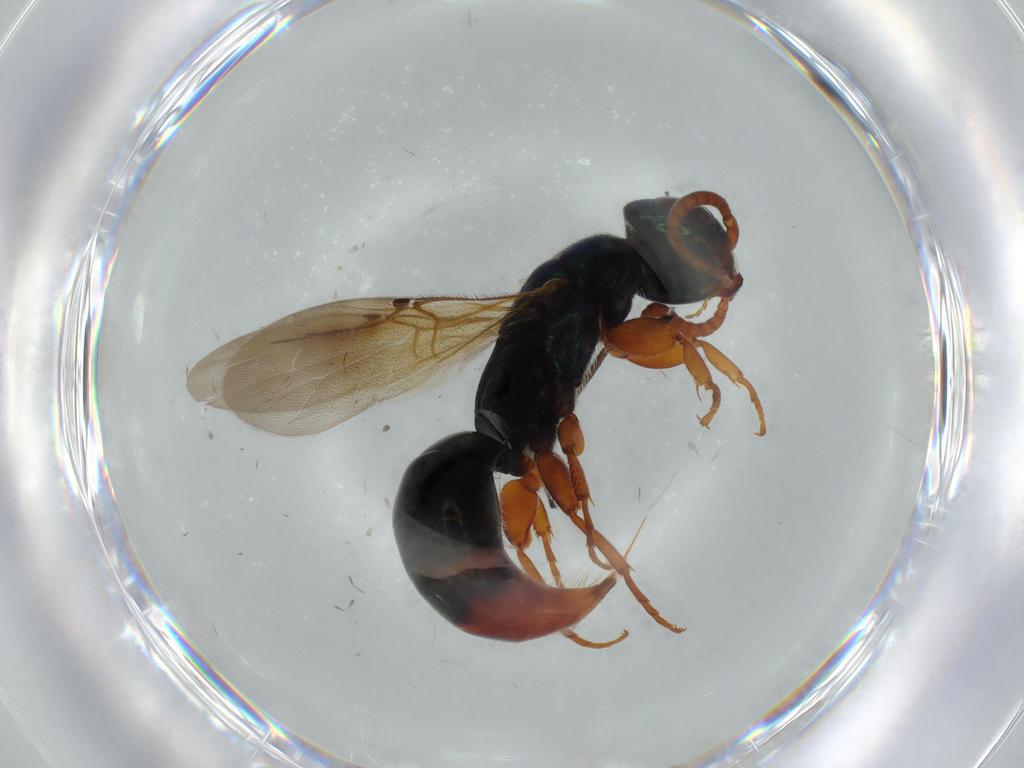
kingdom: Animalia
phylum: Arthropoda
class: Insecta
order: Hymenoptera
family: Bethylidae
